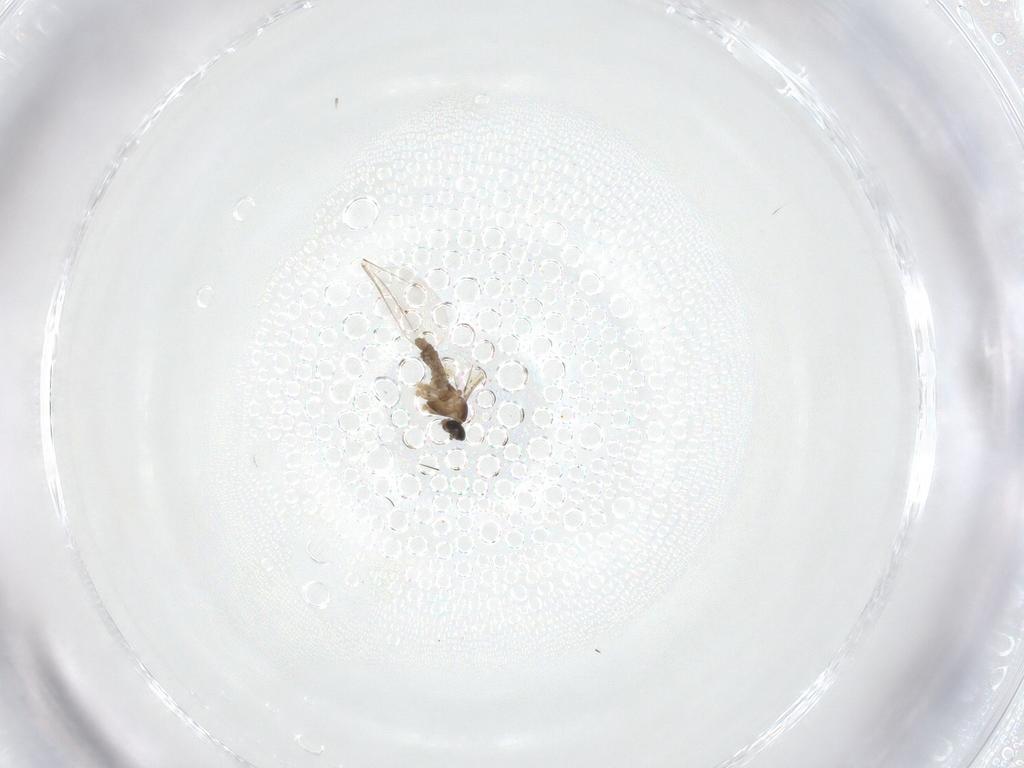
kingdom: Animalia
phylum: Arthropoda
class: Insecta
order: Diptera
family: Cecidomyiidae
